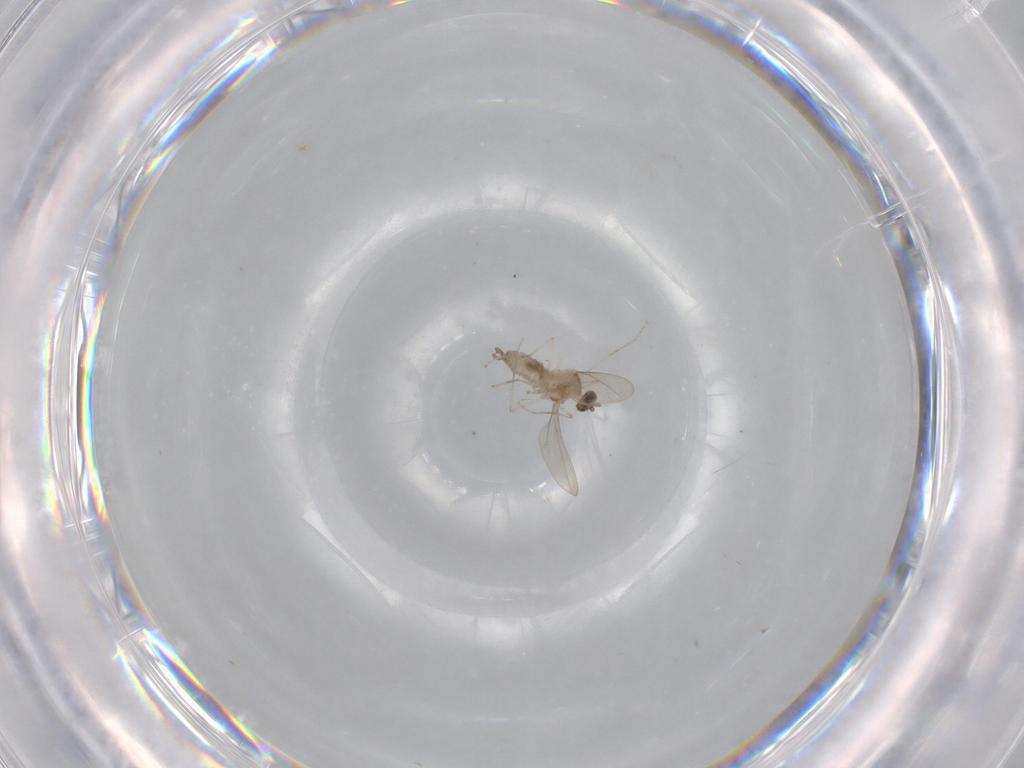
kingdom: Animalia
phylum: Arthropoda
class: Insecta
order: Diptera
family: Cecidomyiidae
